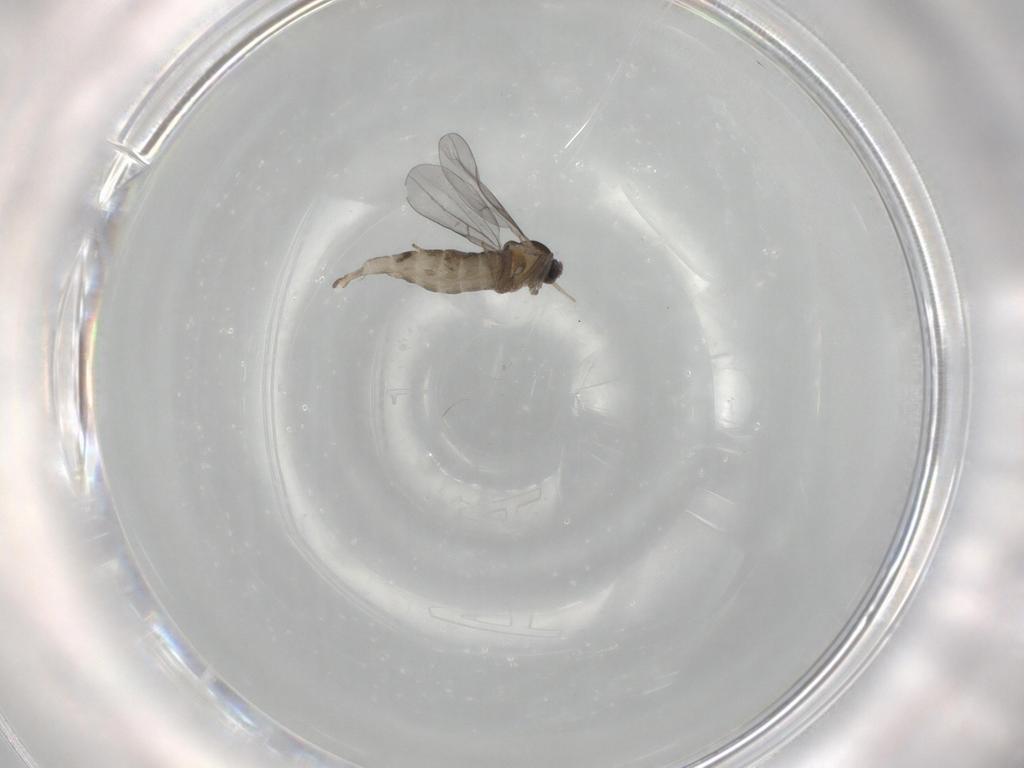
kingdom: Animalia
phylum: Arthropoda
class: Insecta
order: Diptera
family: Cecidomyiidae
